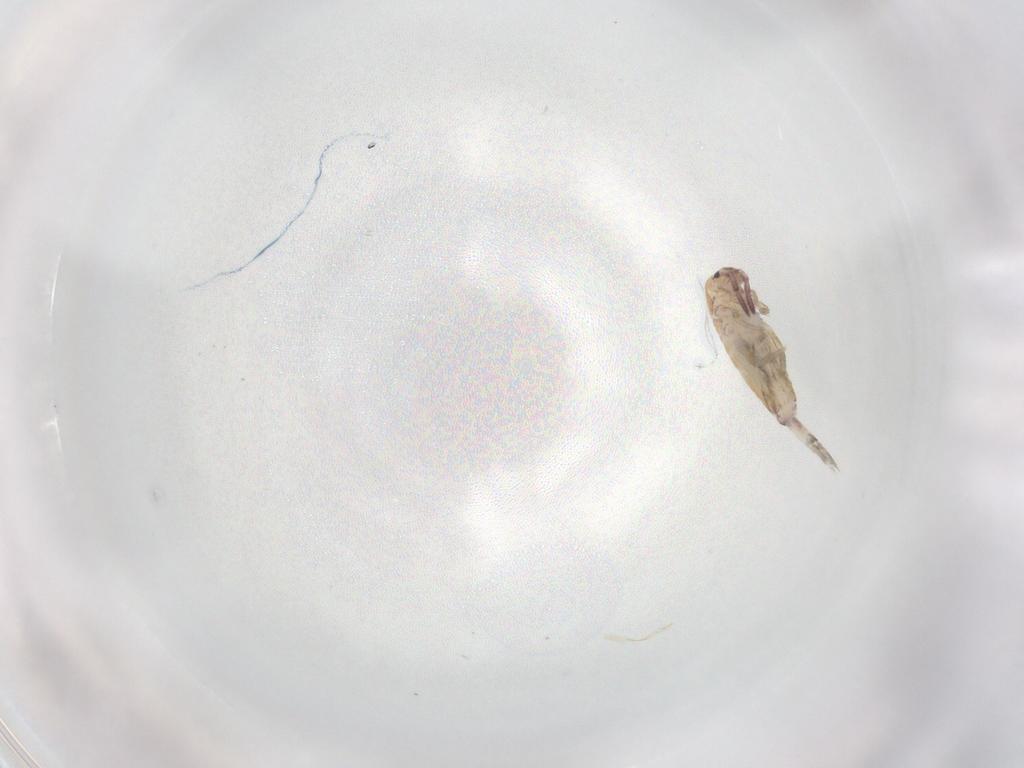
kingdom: Animalia
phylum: Arthropoda
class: Collembola
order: Entomobryomorpha
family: Entomobryidae
